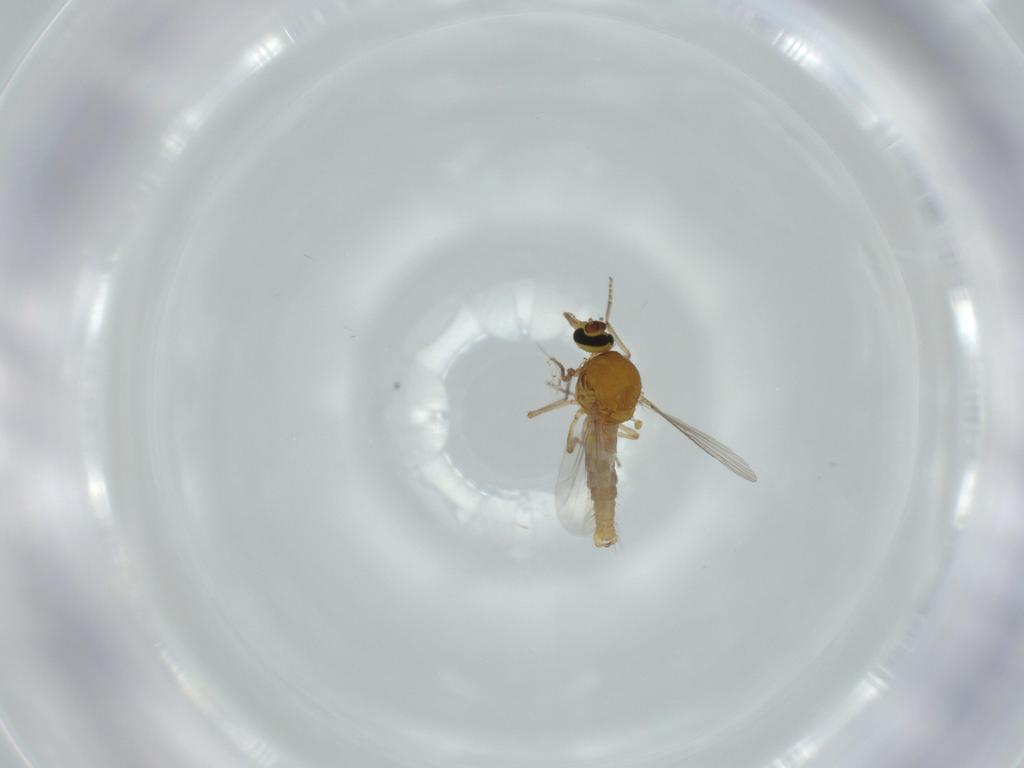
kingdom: Animalia
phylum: Arthropoda
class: Insecta
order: Diptera
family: Ceratopogonidae
